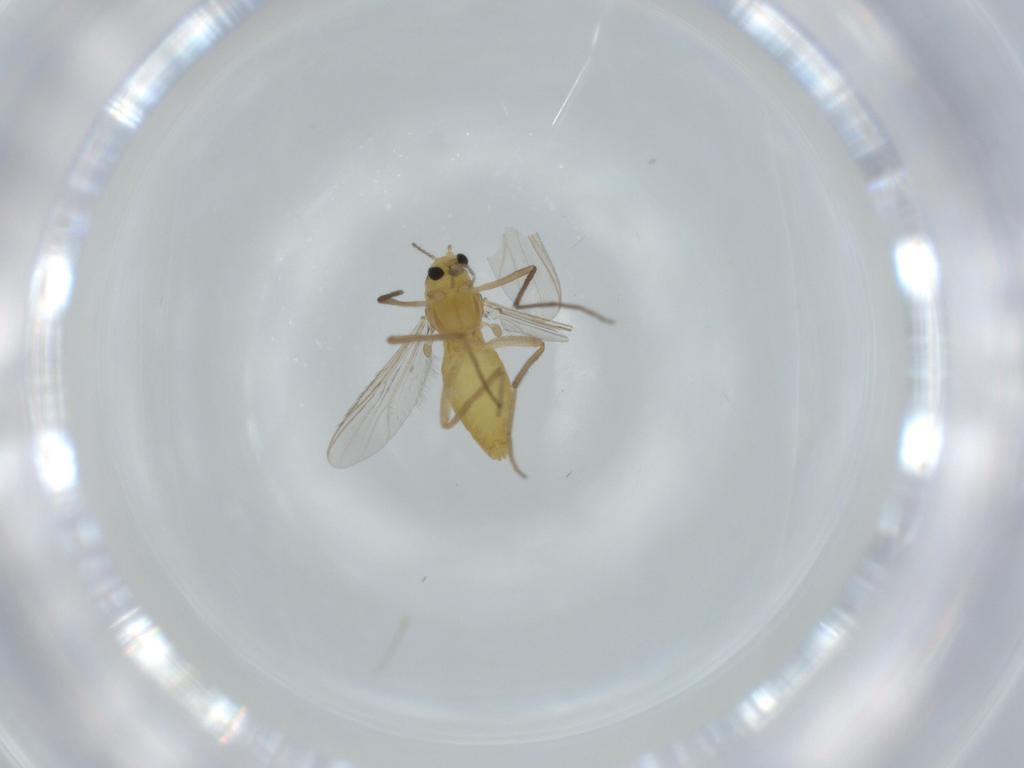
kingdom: Animalia
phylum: Arthropoda
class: Insecta
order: Diptera
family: Chironomidae
